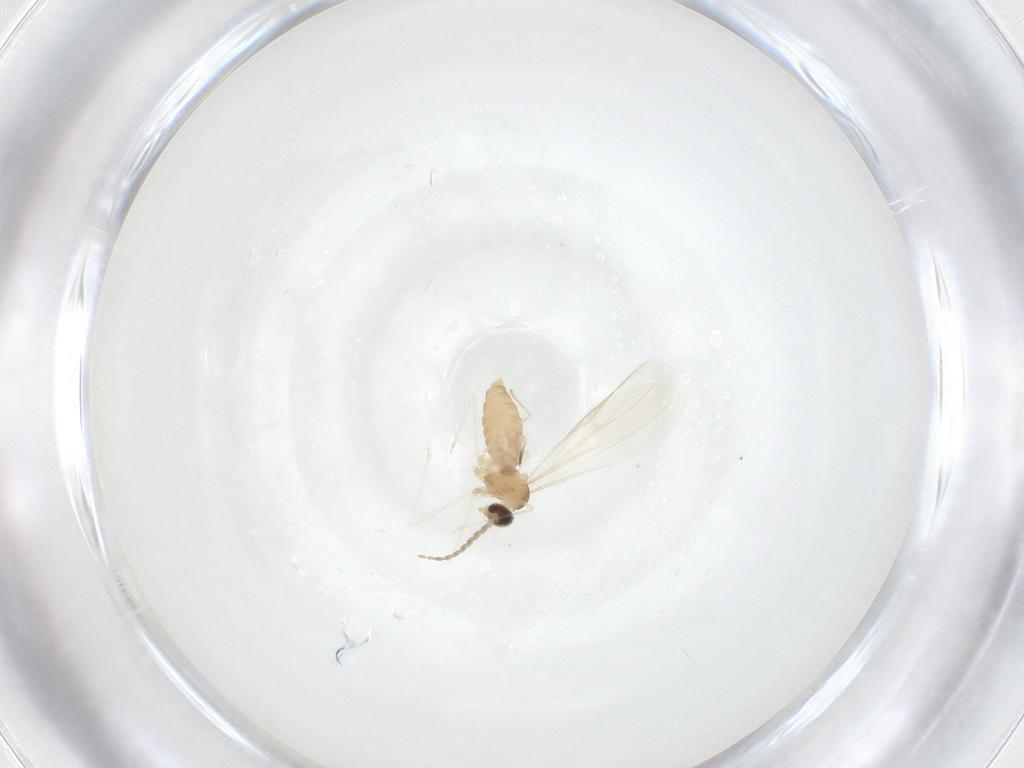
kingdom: Animalia
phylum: Arthropoda
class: Insecta
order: Diptera
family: Cecidomyiidae
